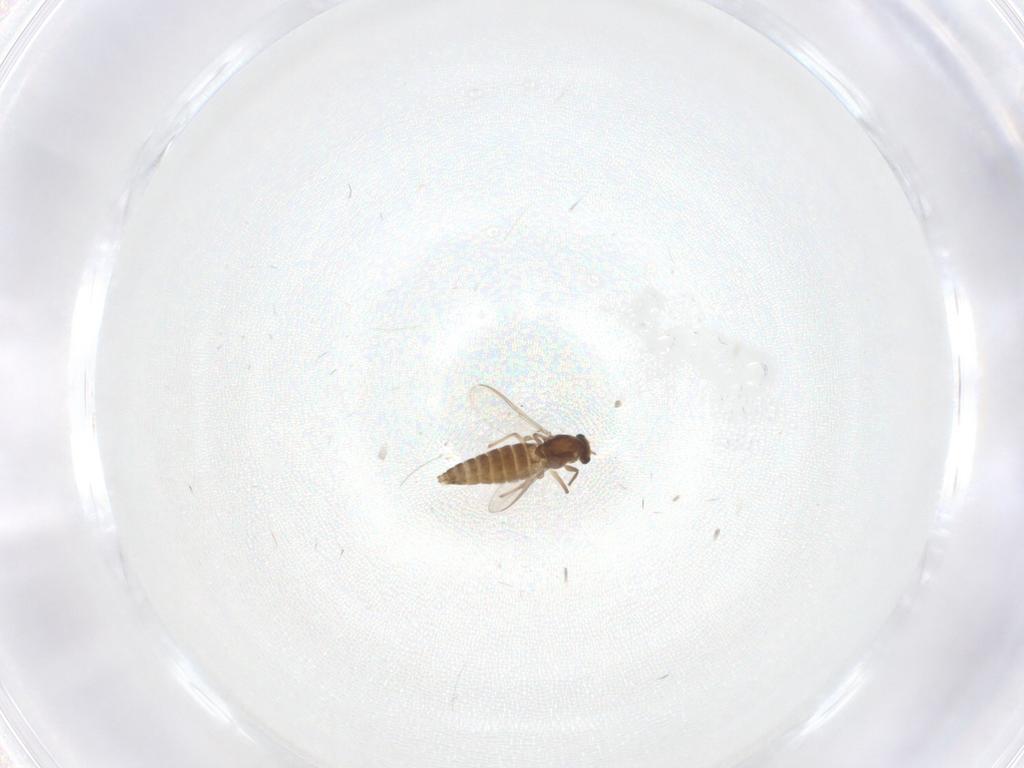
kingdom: Animalia
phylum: Arthropoda
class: Insecta
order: Diptera
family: Chironomidae
